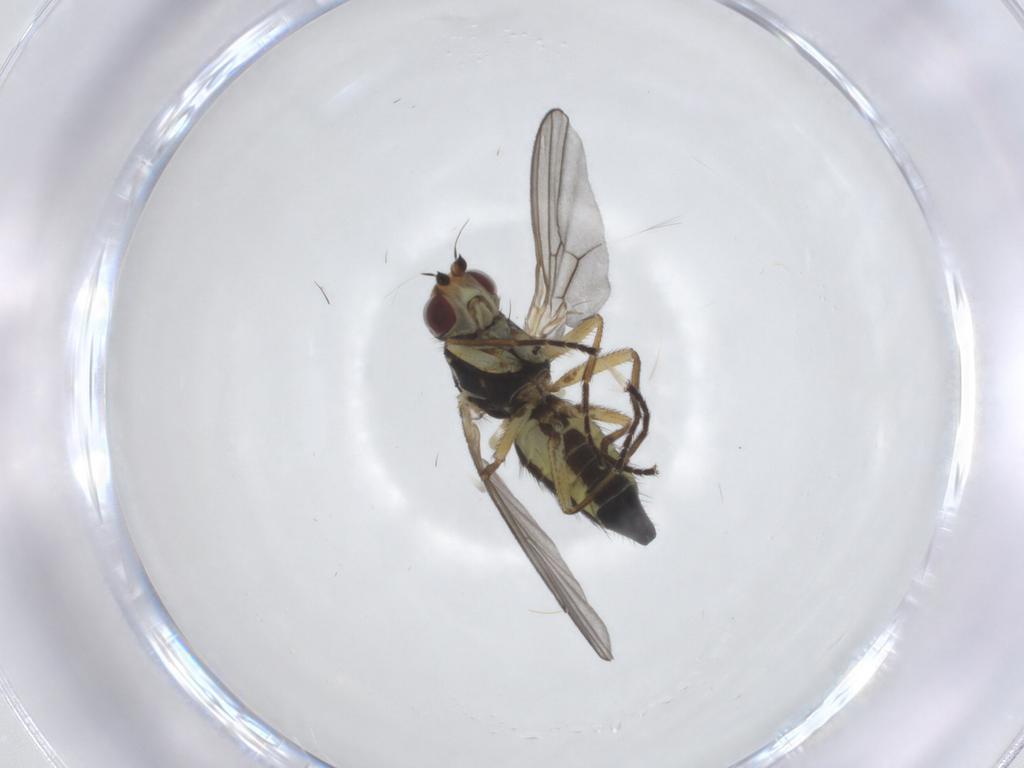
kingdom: Animalia
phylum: Arthropoda
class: Insecta
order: Diptera
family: Agromyzidae
